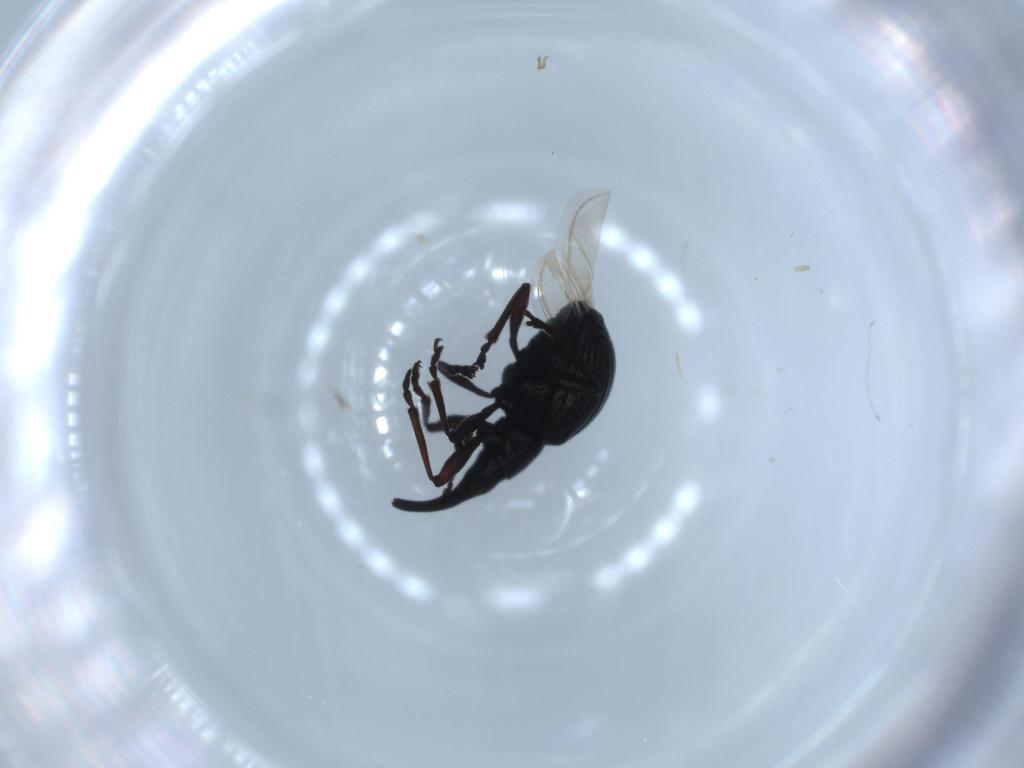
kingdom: Animalia
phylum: Arthropoda
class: Insecta
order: Coleoptera
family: Brentidae
